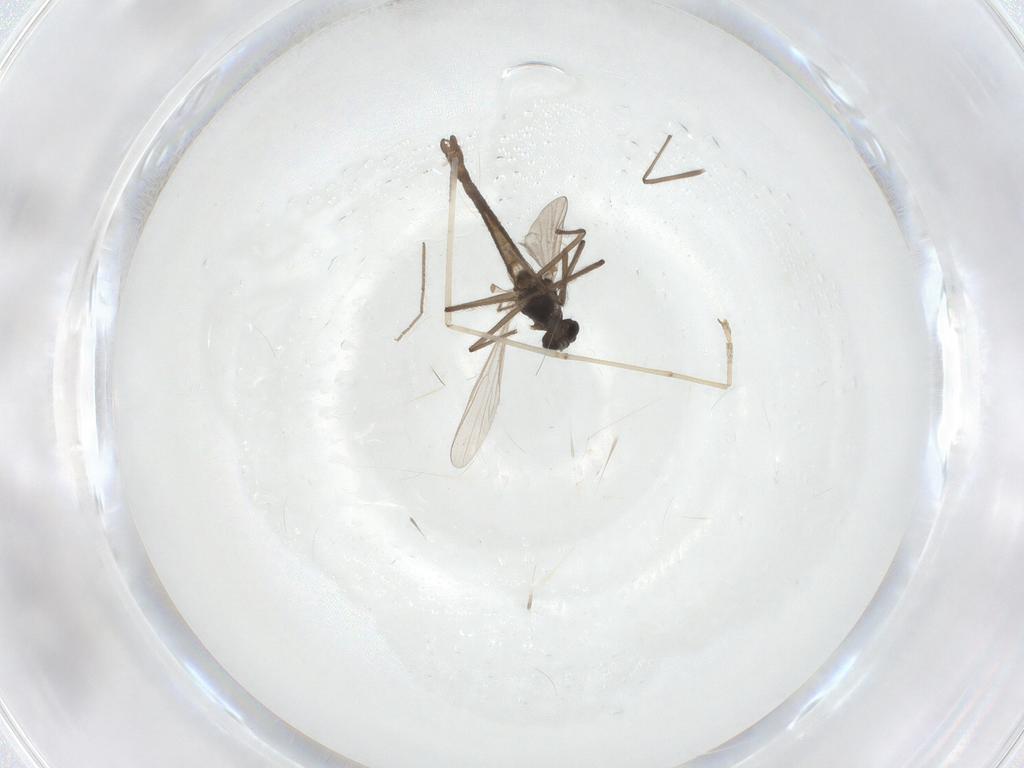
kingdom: Animalia
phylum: Arthropoda
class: Insecta
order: Diptera
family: Chironomidae
